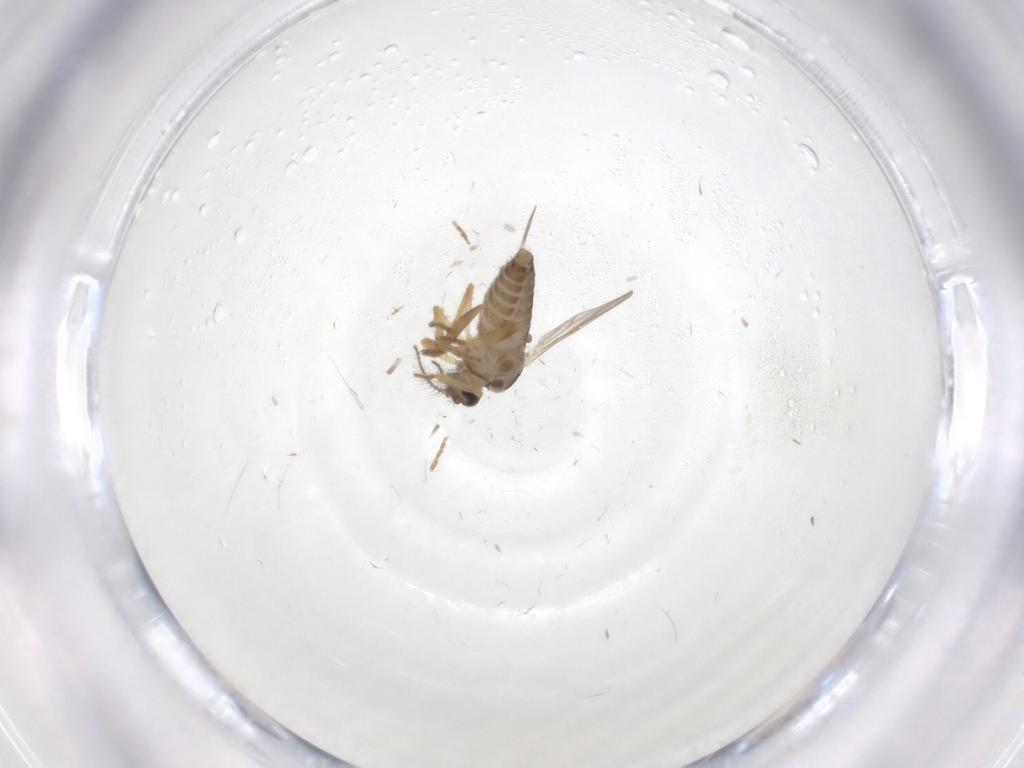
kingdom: Animalia
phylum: Arthropoda
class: Insecta
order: Diptera
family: Ceratopogonidae
